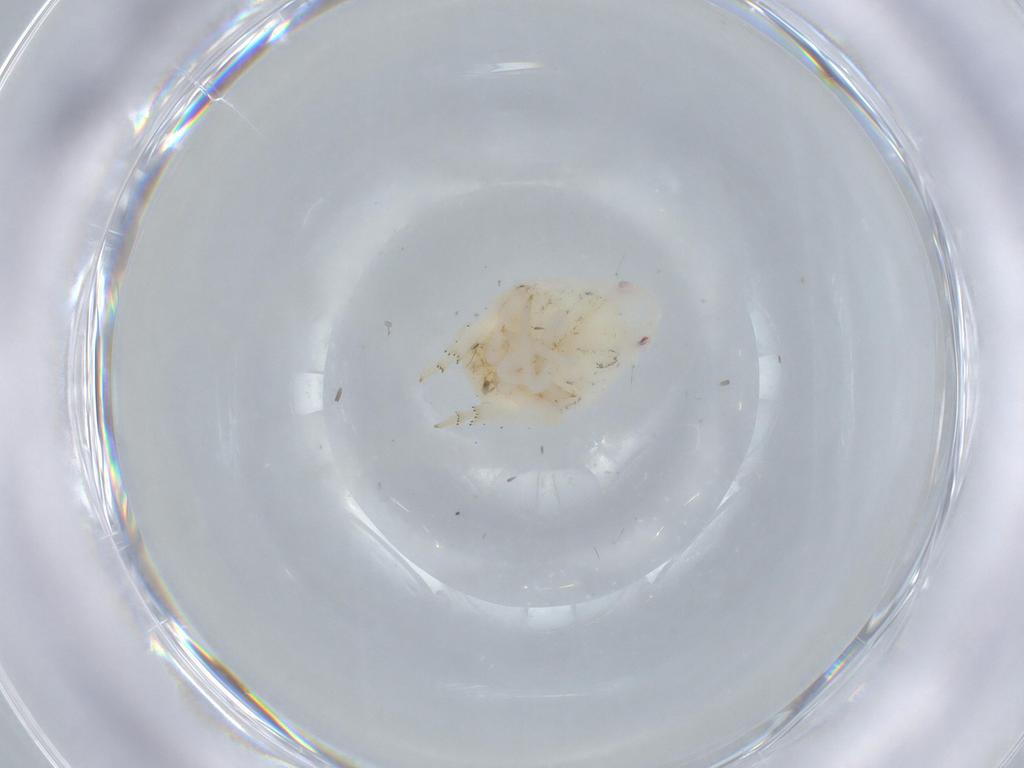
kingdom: Animalia
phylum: Arthropoda
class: Insecta
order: Hemiptera
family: Flatidae
